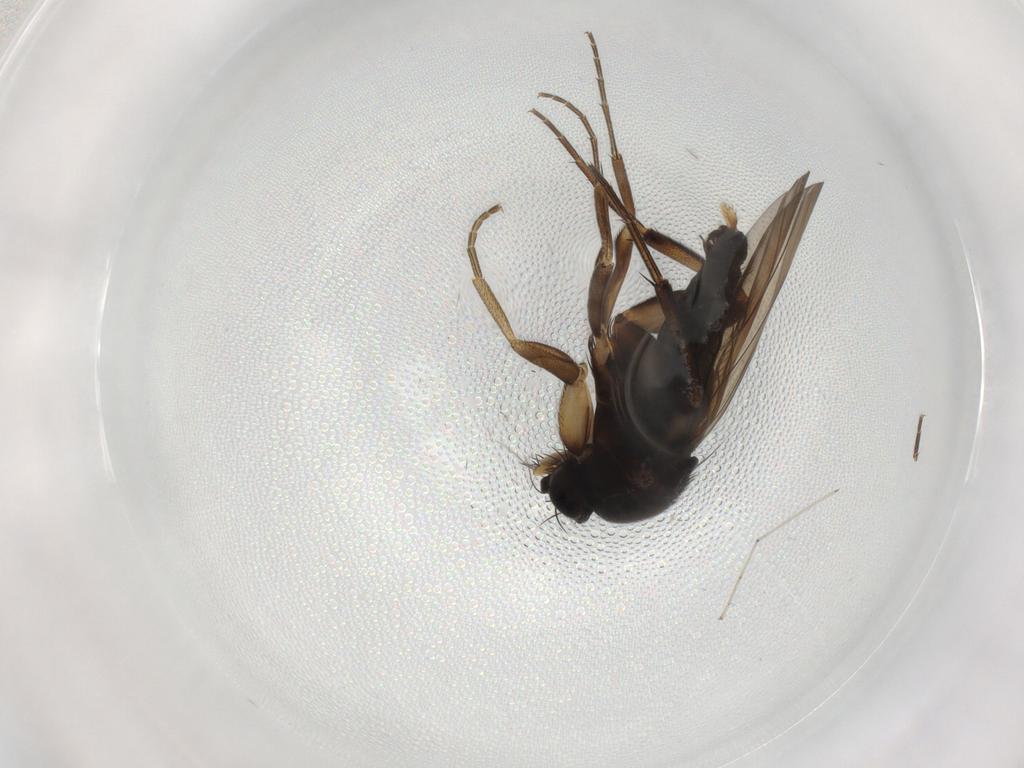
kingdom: Animalia
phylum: Arthropoda
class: Insecta
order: Diptera
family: Phoridae
